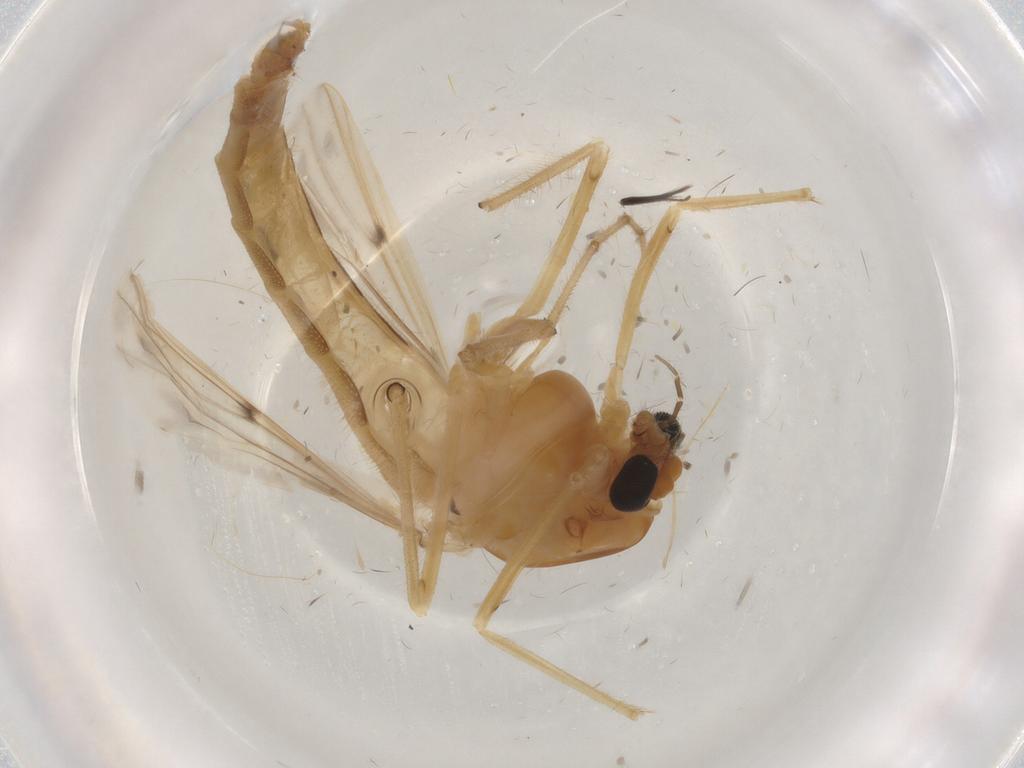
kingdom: Animalia
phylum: Arthropoda
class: Insecta
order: Diptera
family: Chironomidae
